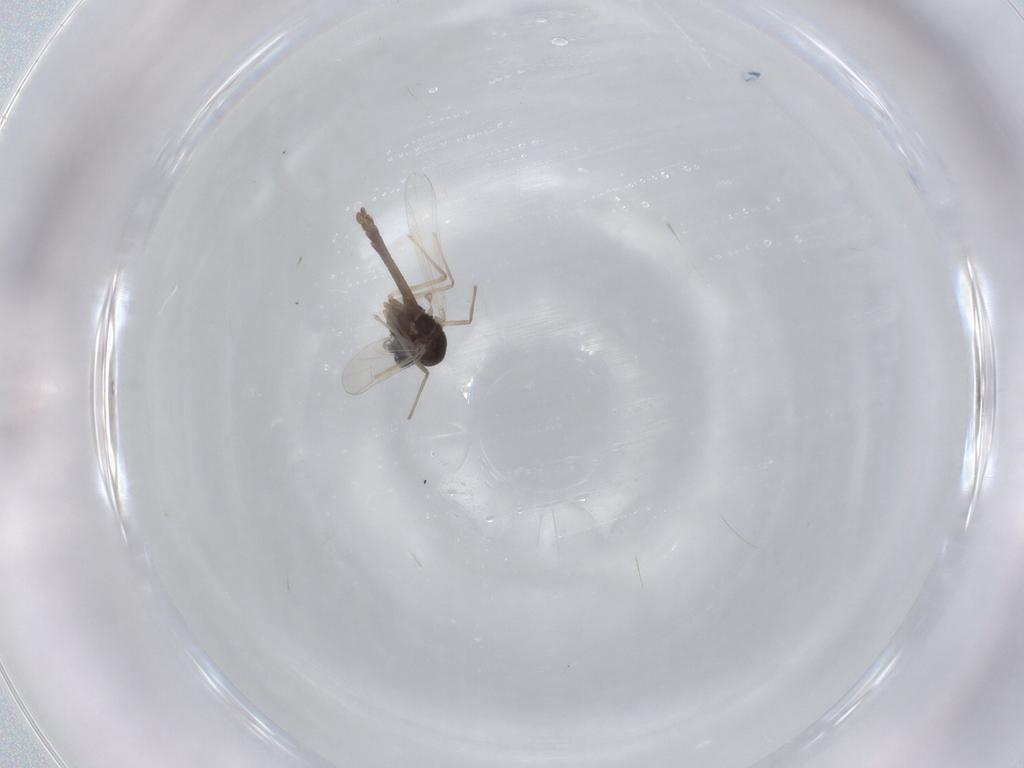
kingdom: Animalia
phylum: Arthropoda
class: Insecta
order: Diptera
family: Chironomidae
